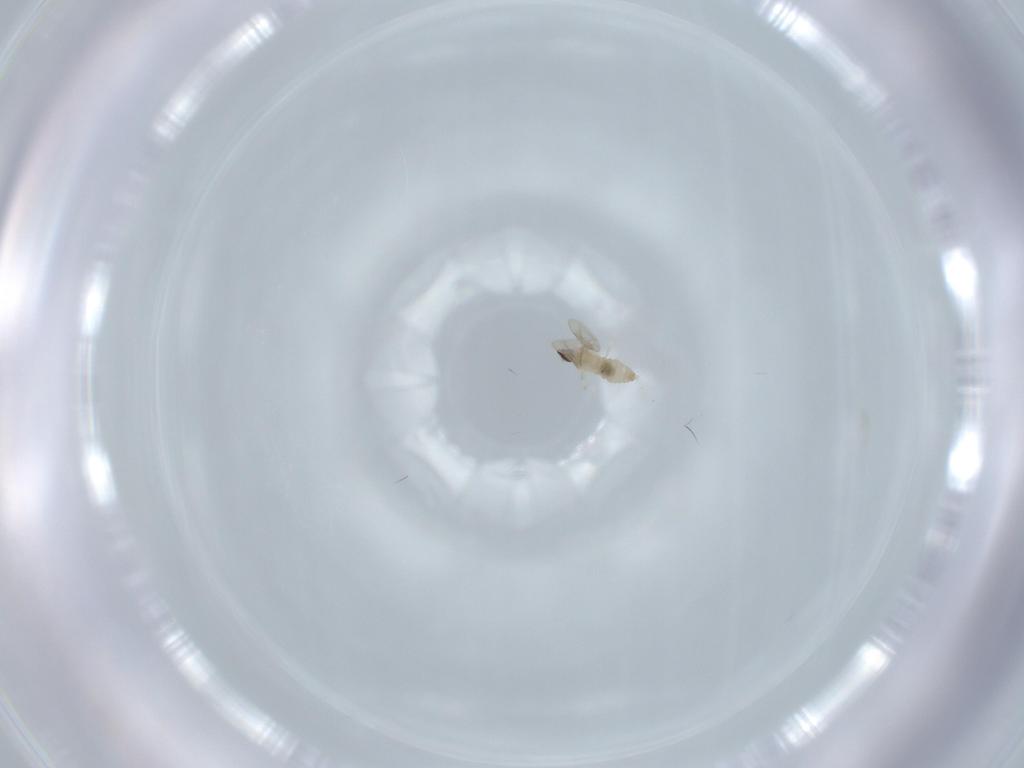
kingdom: Animalia
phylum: Arthropoda
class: Insecta
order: Diptera
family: Cecidomyiidae
